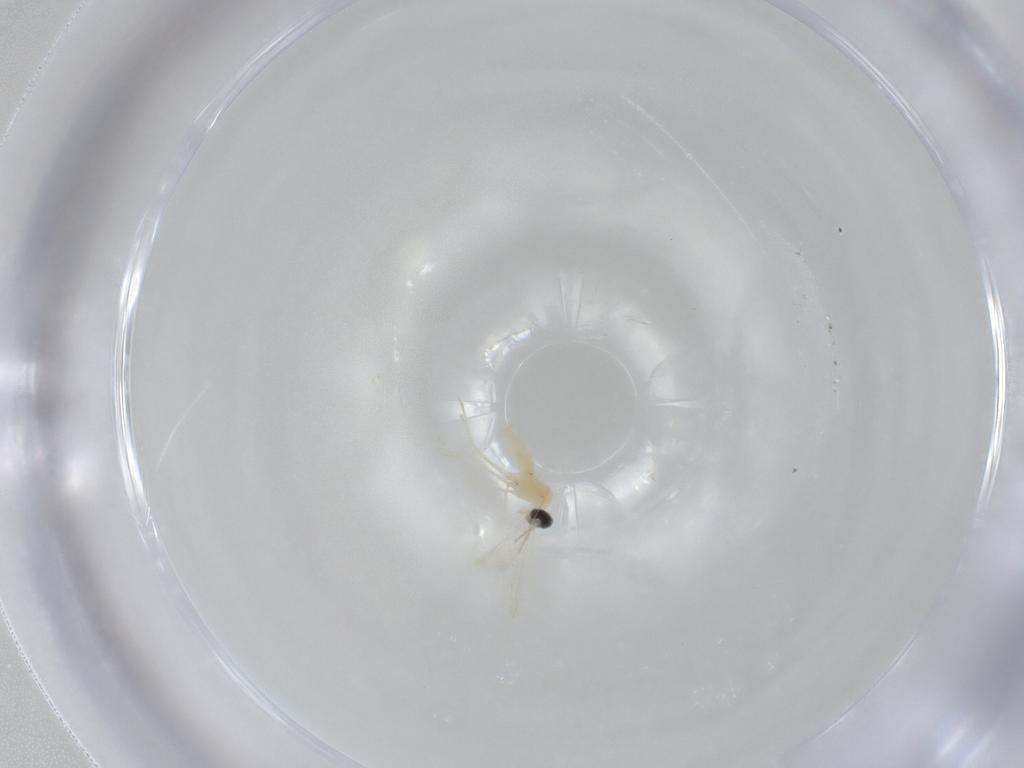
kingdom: Animalia
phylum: Arthropoda
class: Insecta
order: Diptera
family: Cecidomyiidae
